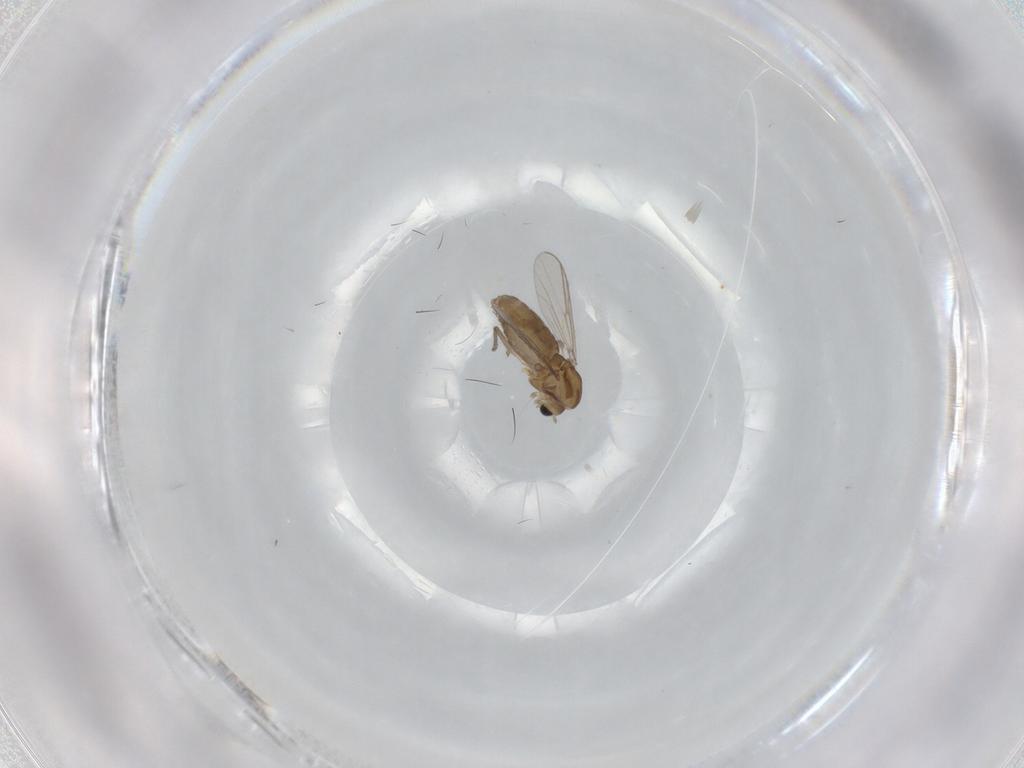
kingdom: Animalia
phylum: Arthropoda
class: Insecta
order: Diptera
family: Chironomidae
